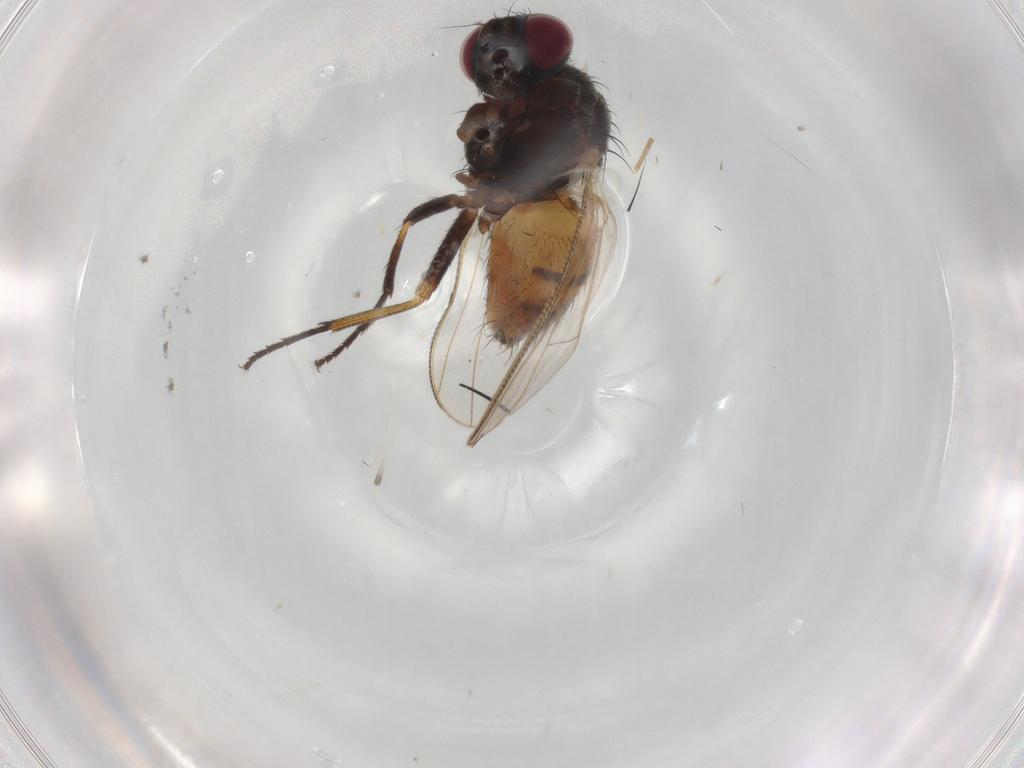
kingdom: Animalia
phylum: Arthropoda
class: Insecta
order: Diptera
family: Muscidae
